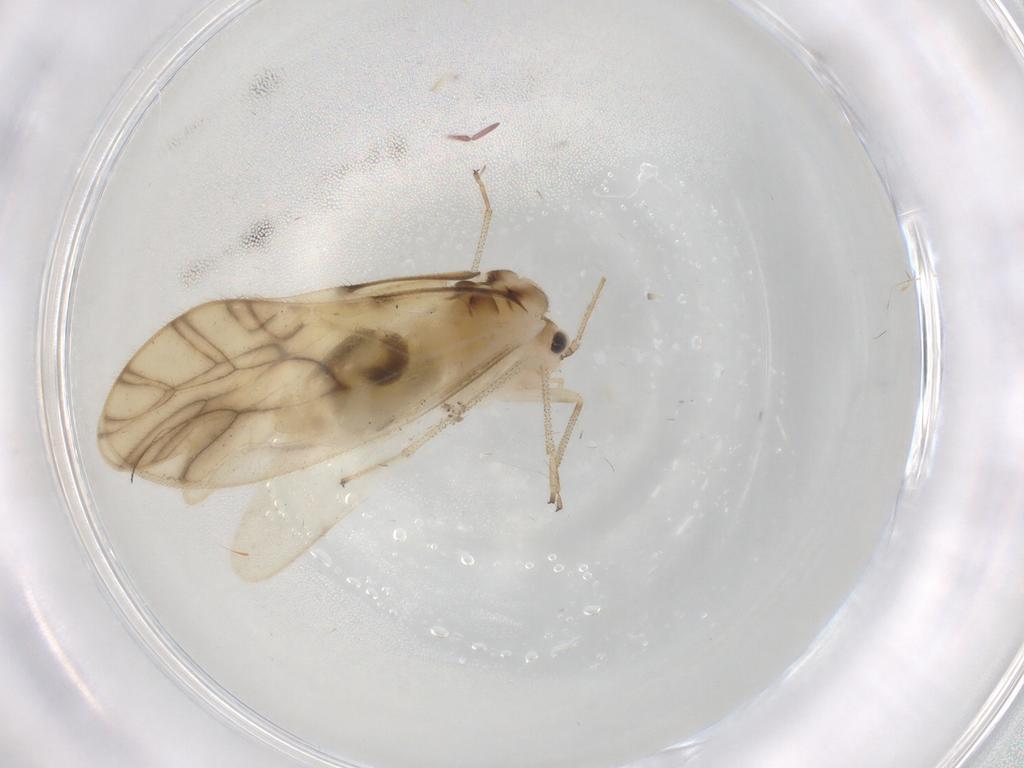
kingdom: Animalia
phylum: Arthropoda
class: Insecta
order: Psocodea
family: Caeciliusidae
